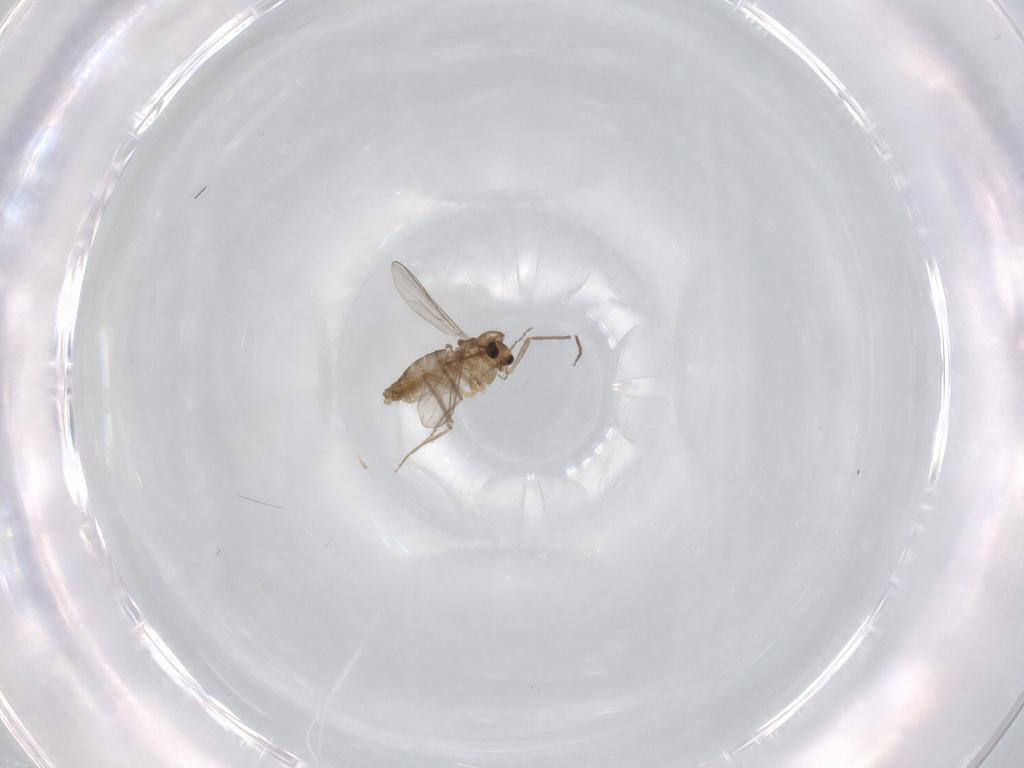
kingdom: Animalia
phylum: Arthropoda
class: Insecta
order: Diptera
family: Chironomidae
